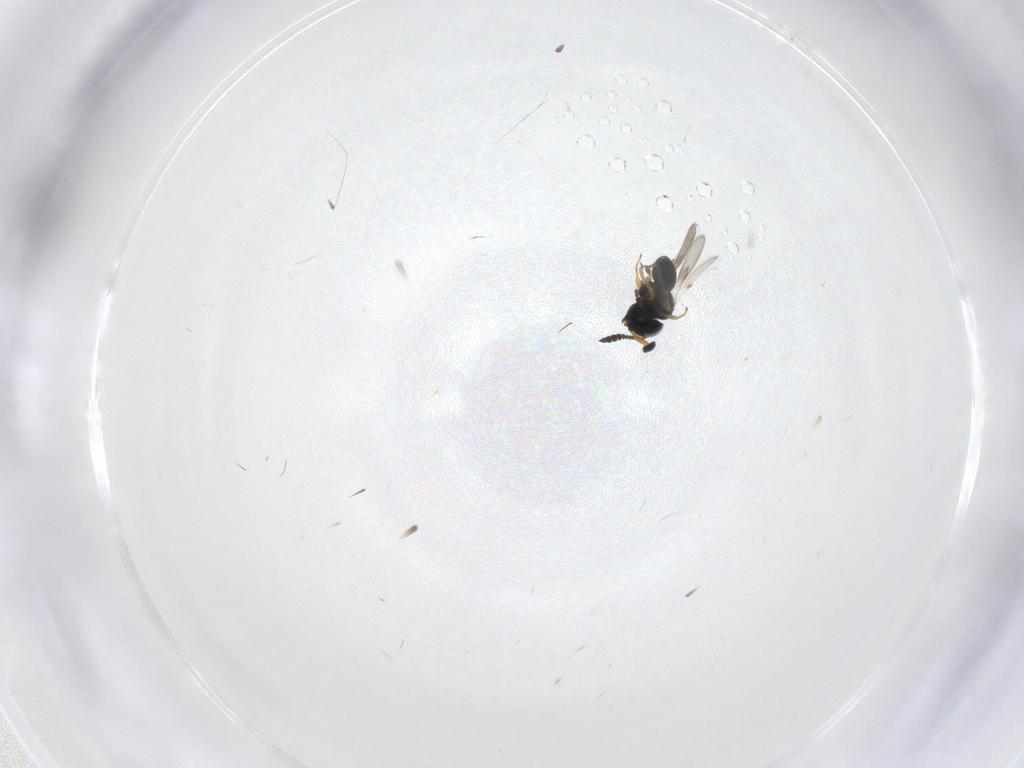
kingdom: Animalia
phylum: Arthropoda
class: Insecta
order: Hymenoptera
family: Scelionidae
